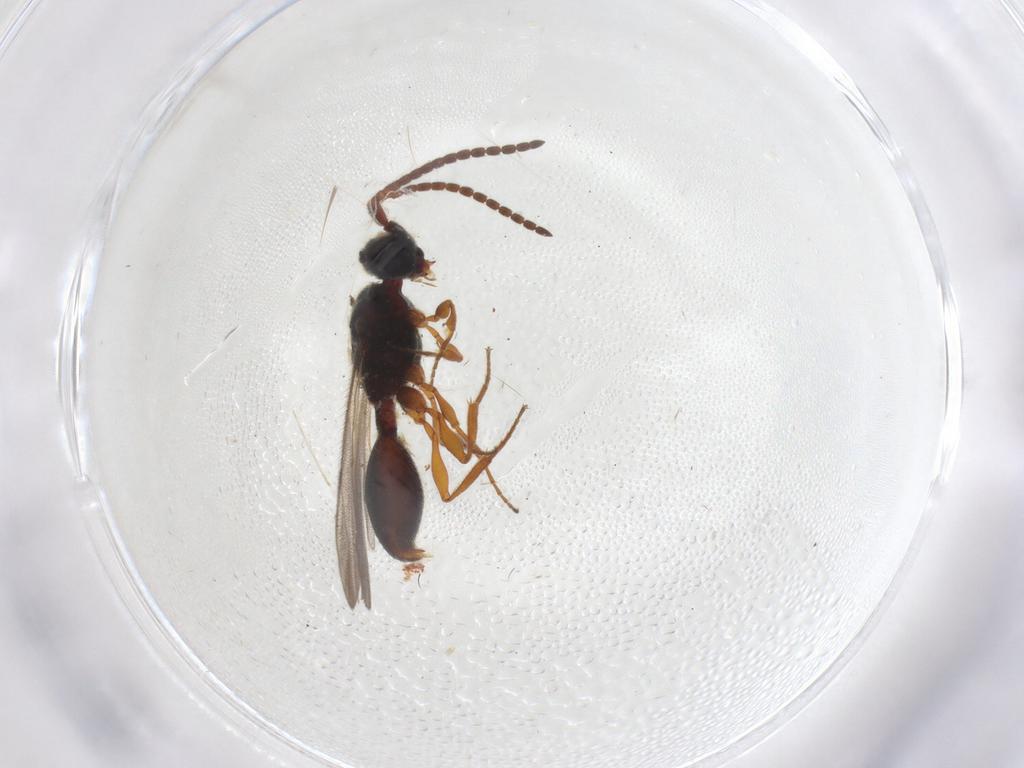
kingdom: Animalia
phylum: Arthropoda
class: Insecta
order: Hymenoptera
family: Braconidae
